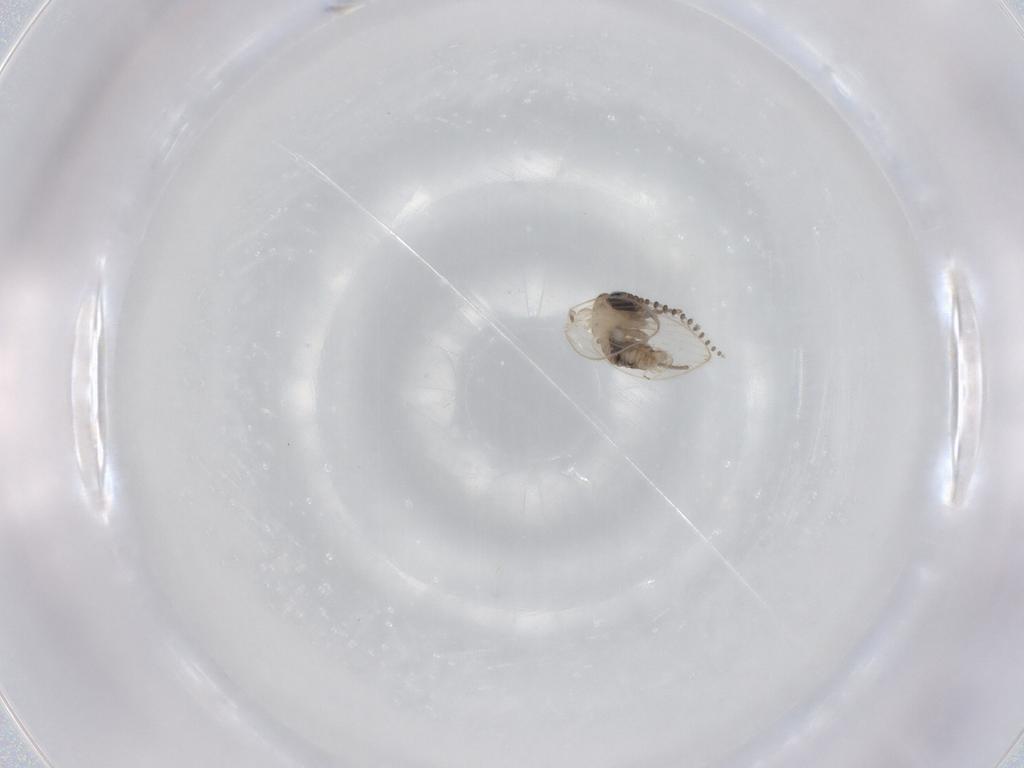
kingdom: Animalia
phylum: Arthropoda
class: Insecta
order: Diptera
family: Psychodidae
